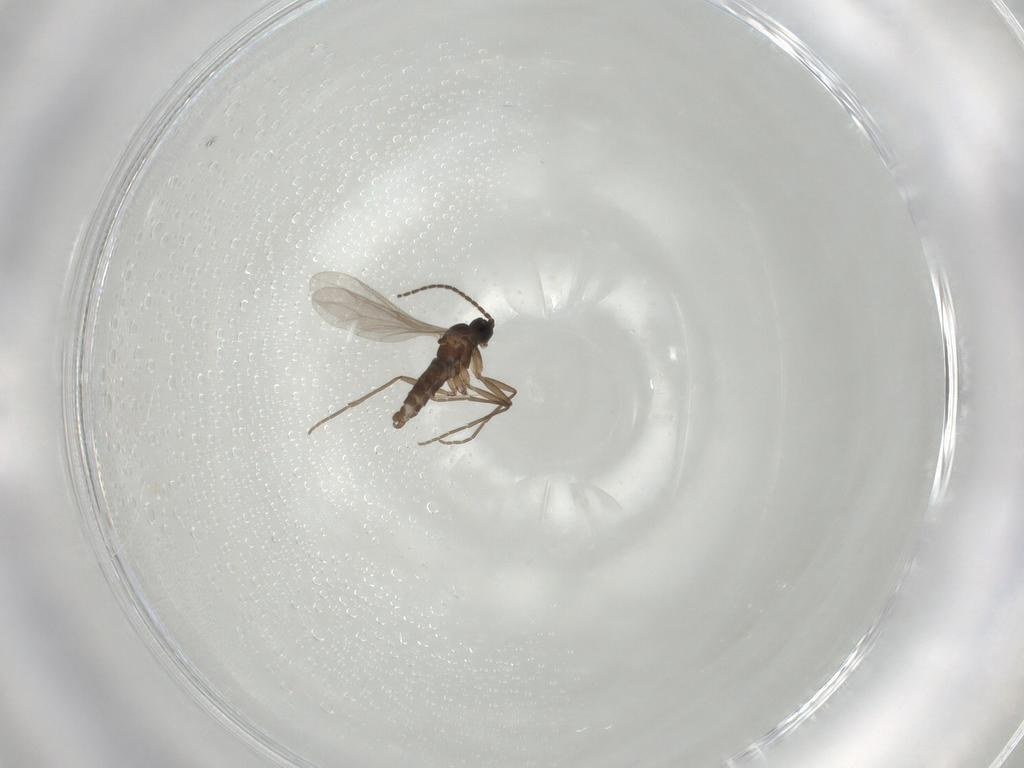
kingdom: Animalia
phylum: Arthropoda
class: Insecta
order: Diptera
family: Sciaridae
